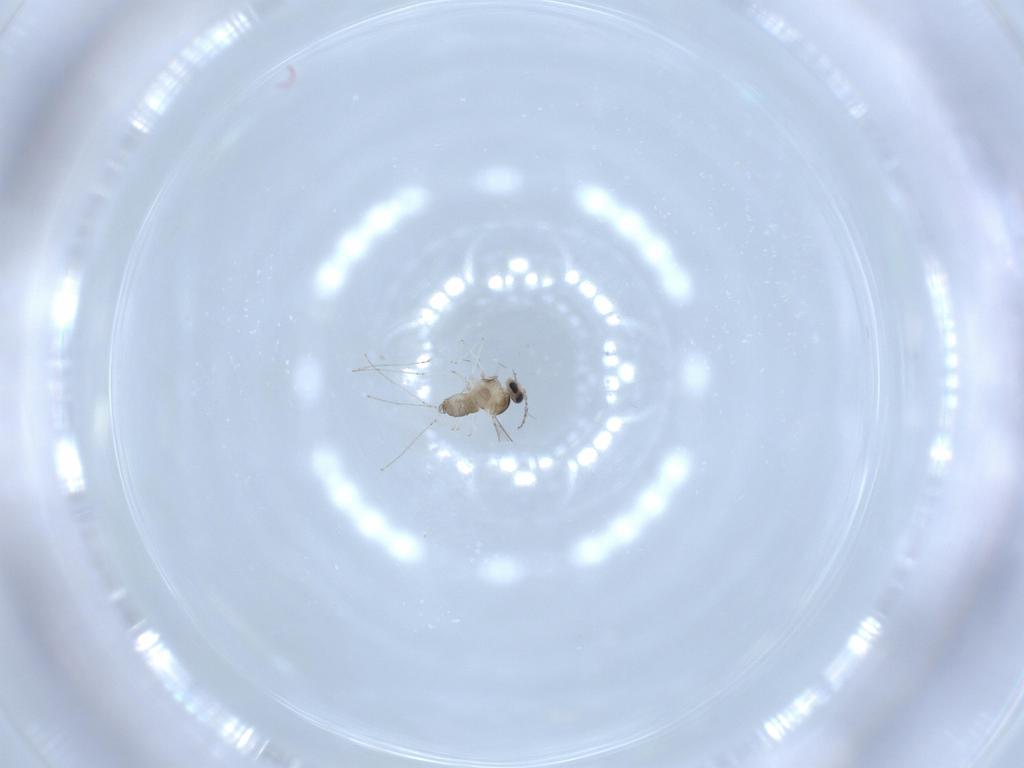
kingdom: Animalia
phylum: Arthropoda
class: Insecta
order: Diptera
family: Cecidomyiidae
